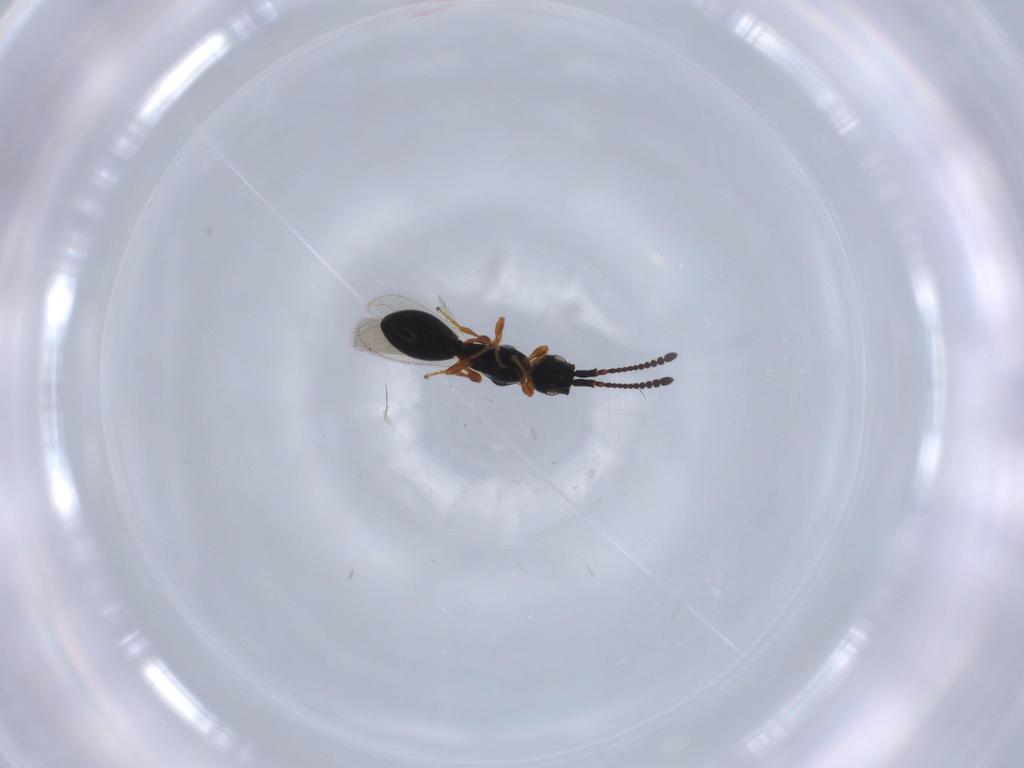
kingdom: Animalia
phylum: Arthropoda
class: Insecta
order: Hymenoptera
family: Diapriidae
